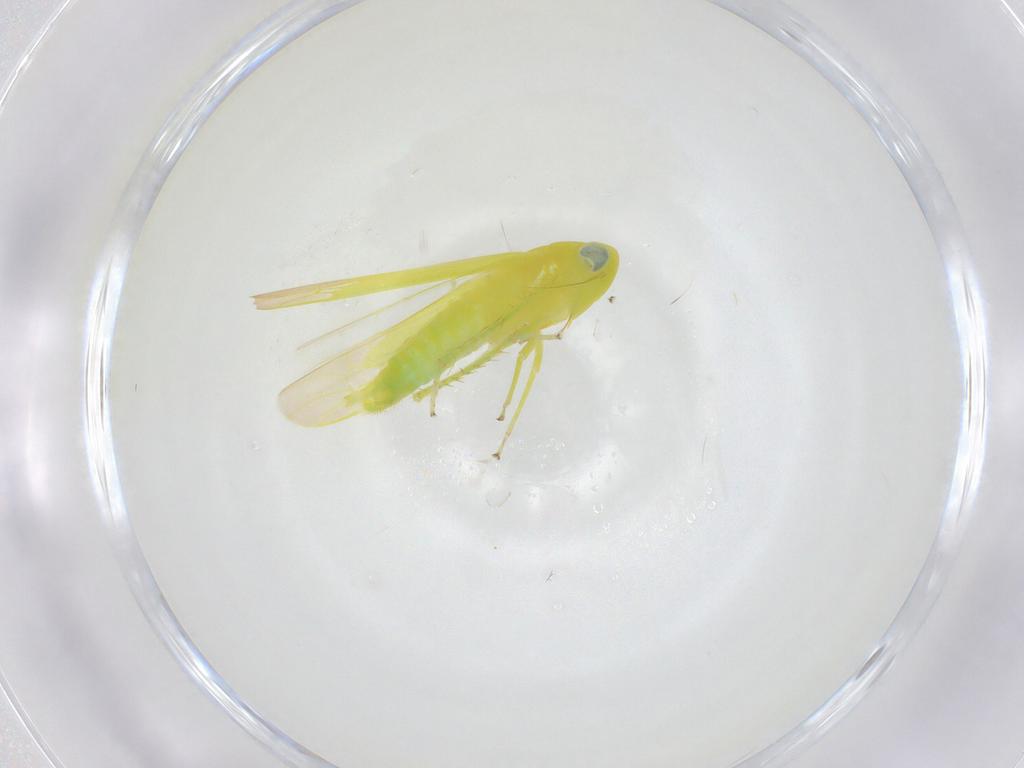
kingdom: Animalia
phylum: Arthropoda
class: Insecta
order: Hemiptera
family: Cicadellidae
